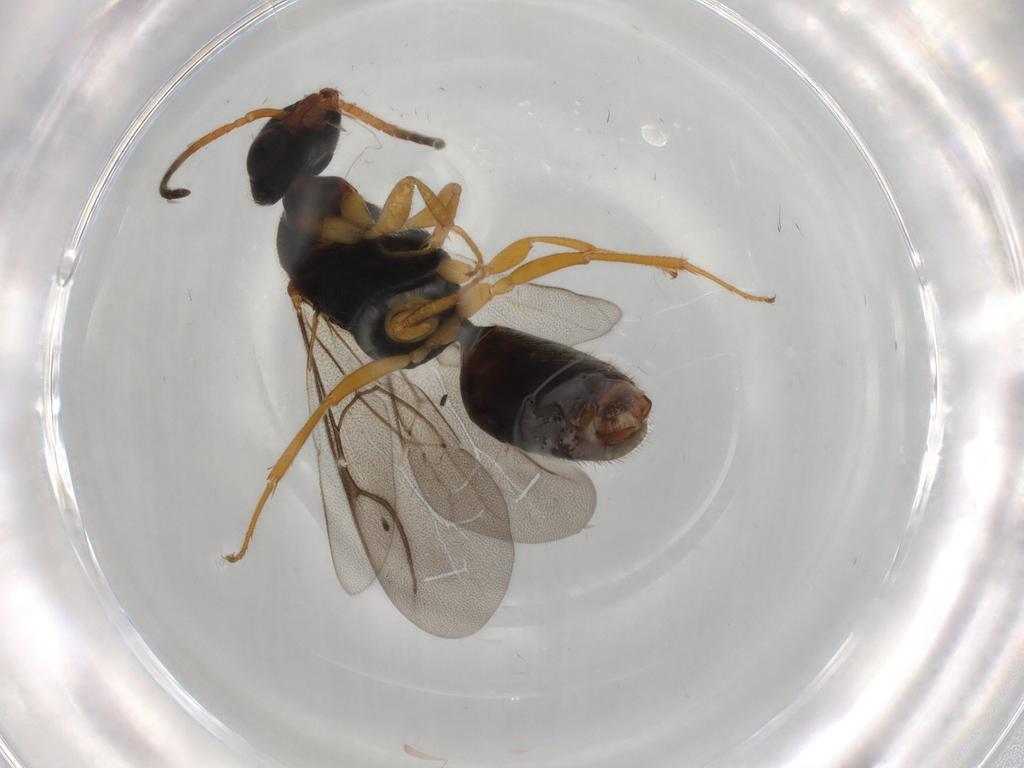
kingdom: Animalia
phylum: Arthropoda
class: Insecta
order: Hymenoptera
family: Bethylidae
